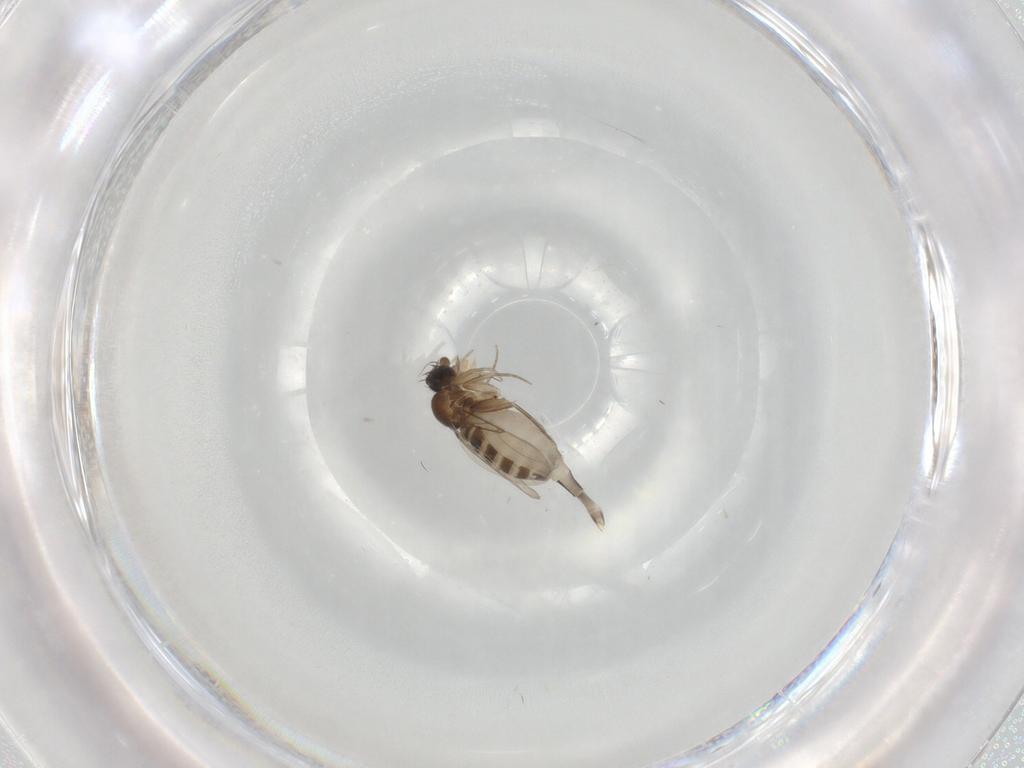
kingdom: Animalia
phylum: Arthropoda
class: Insecta
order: Diptera
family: Phoridae
